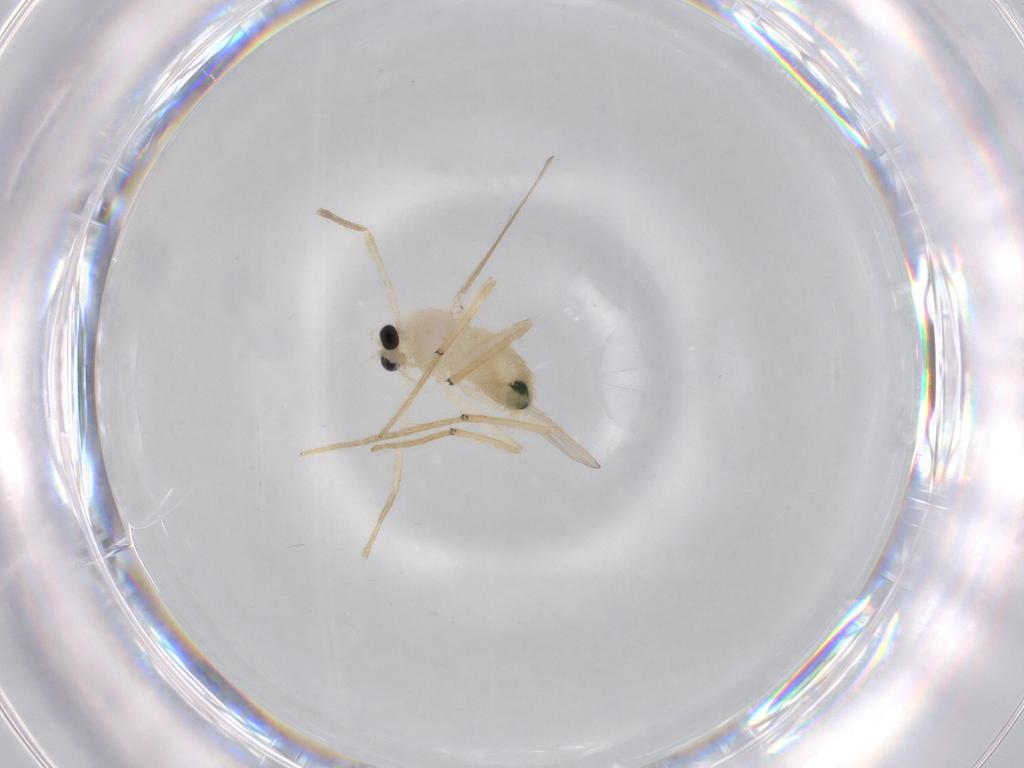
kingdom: Animalia
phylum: Arthropoda
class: Insecta
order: Diptera
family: Chironomidae
